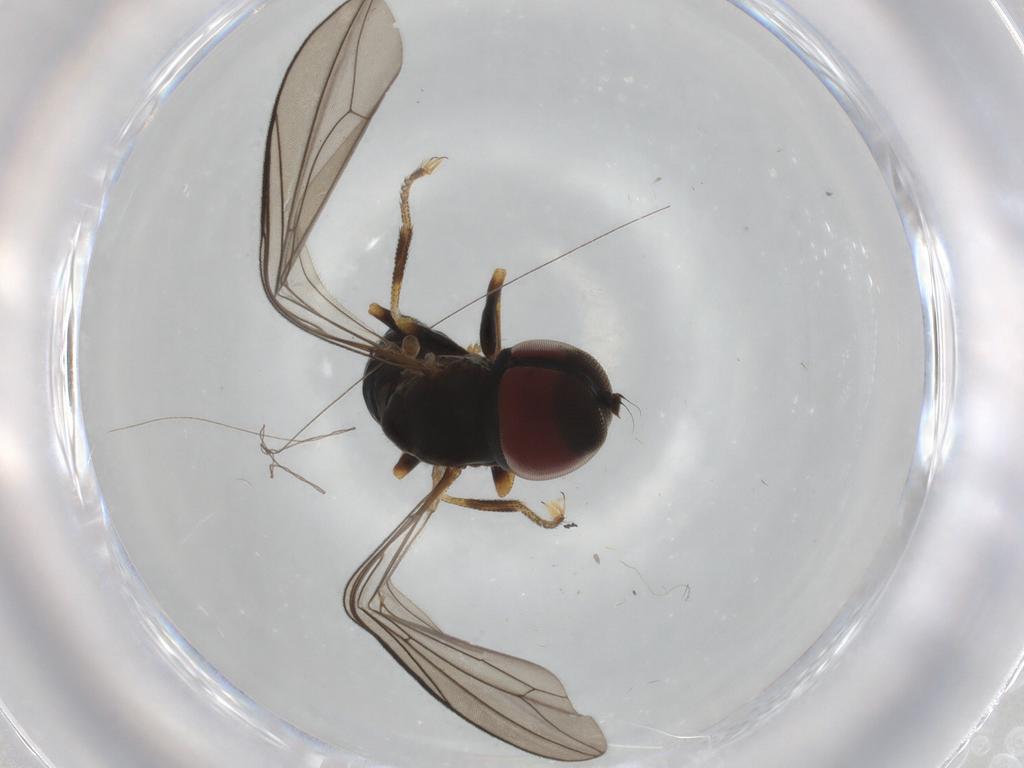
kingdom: Animalia
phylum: Arthropoda
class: Insecta
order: Diptera
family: Pipunculidae
